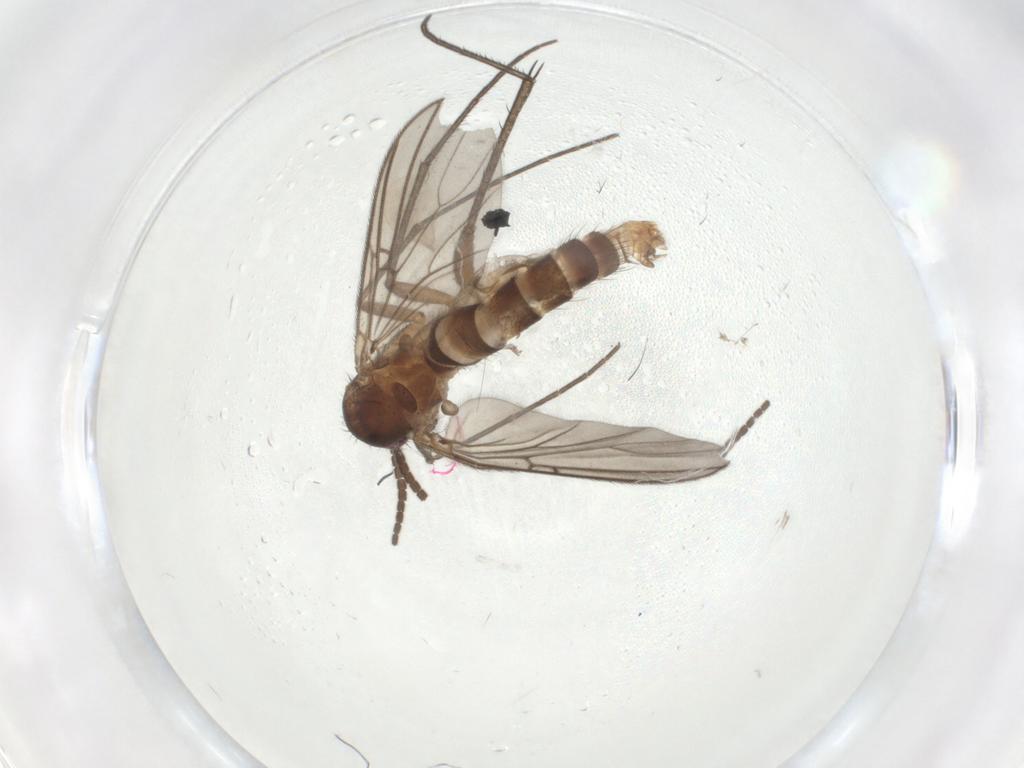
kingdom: Animalia
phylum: Arthropoda
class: Insecta
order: Diptera
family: Mycetophilidae
